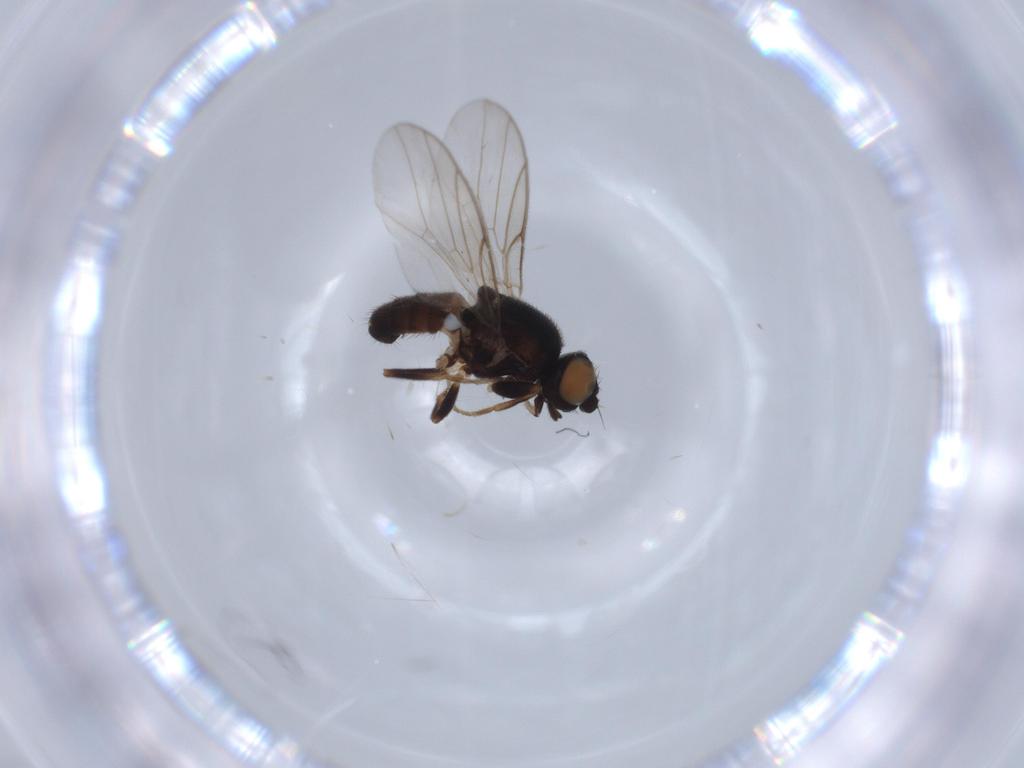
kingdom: Animalia
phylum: Arthropoda
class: Insecta
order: Diptera
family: Chloropidae
